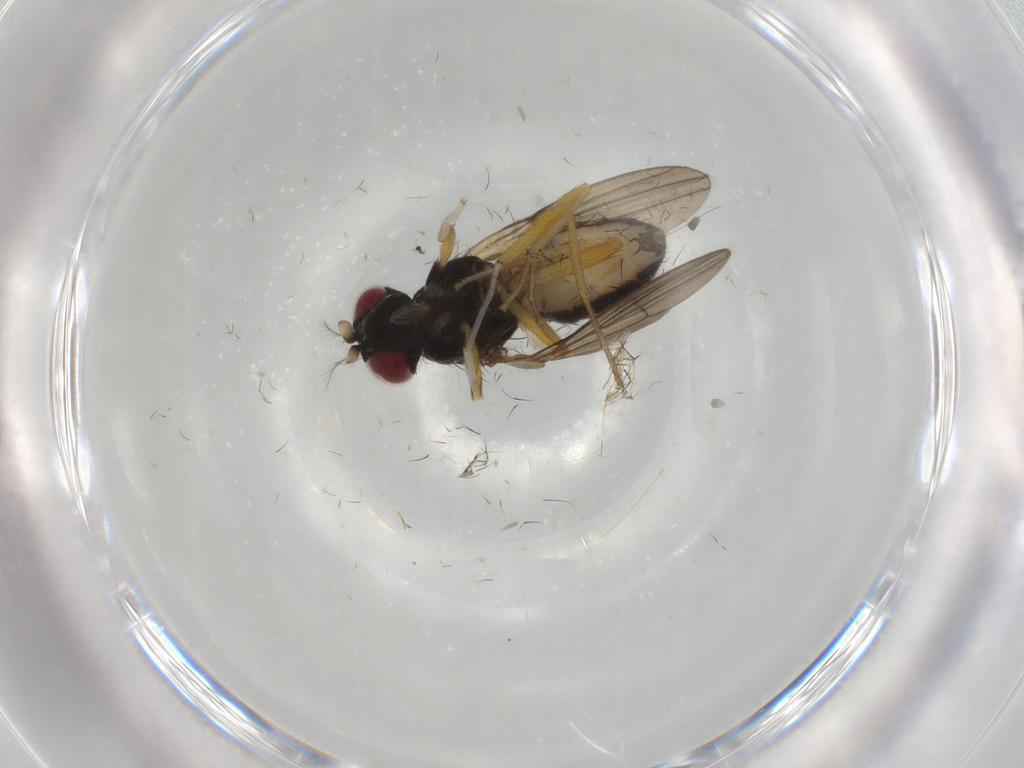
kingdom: Animalia
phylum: Arthropoda
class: Insecta
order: Diptera
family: Lauxaniidae
